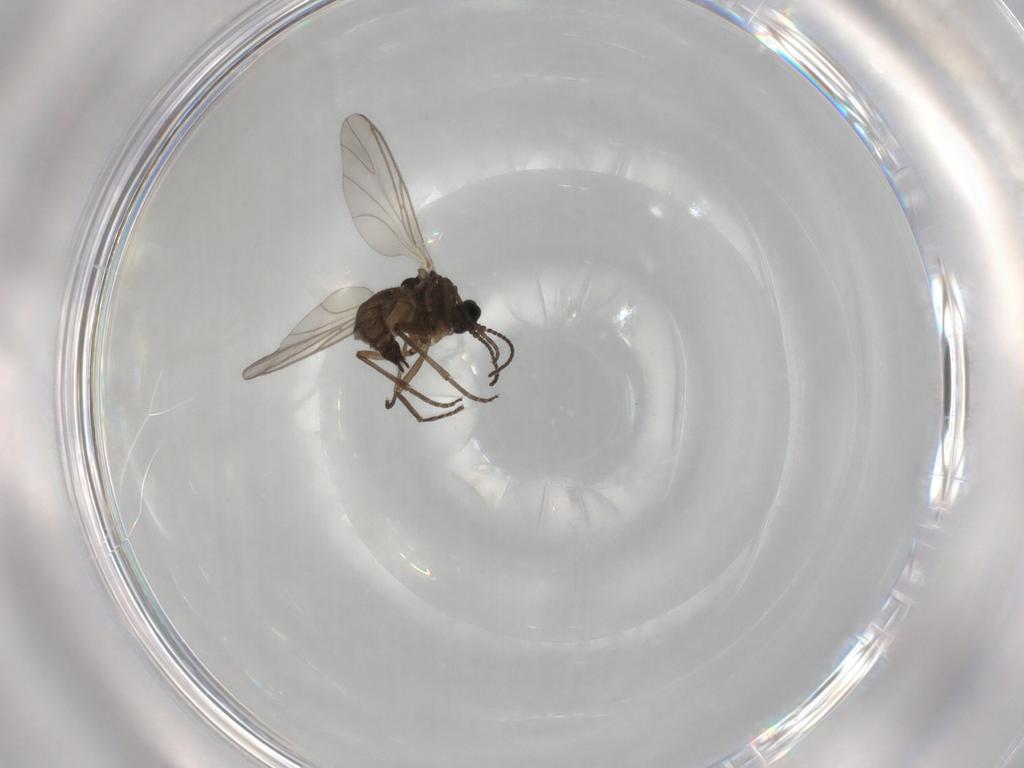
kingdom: Animalia
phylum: Arthropoda
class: Insecta
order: Diptera
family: Sciaridae
